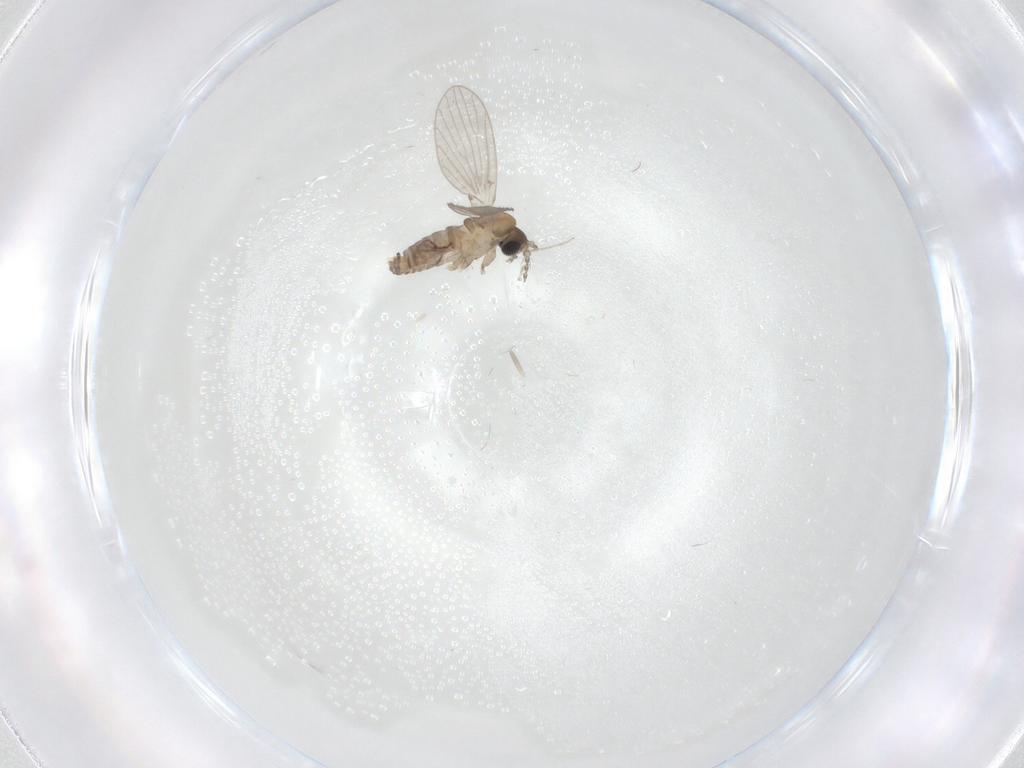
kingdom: Animalia
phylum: Arthropoda
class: Insecta
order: Diptera
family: Psychodidae
